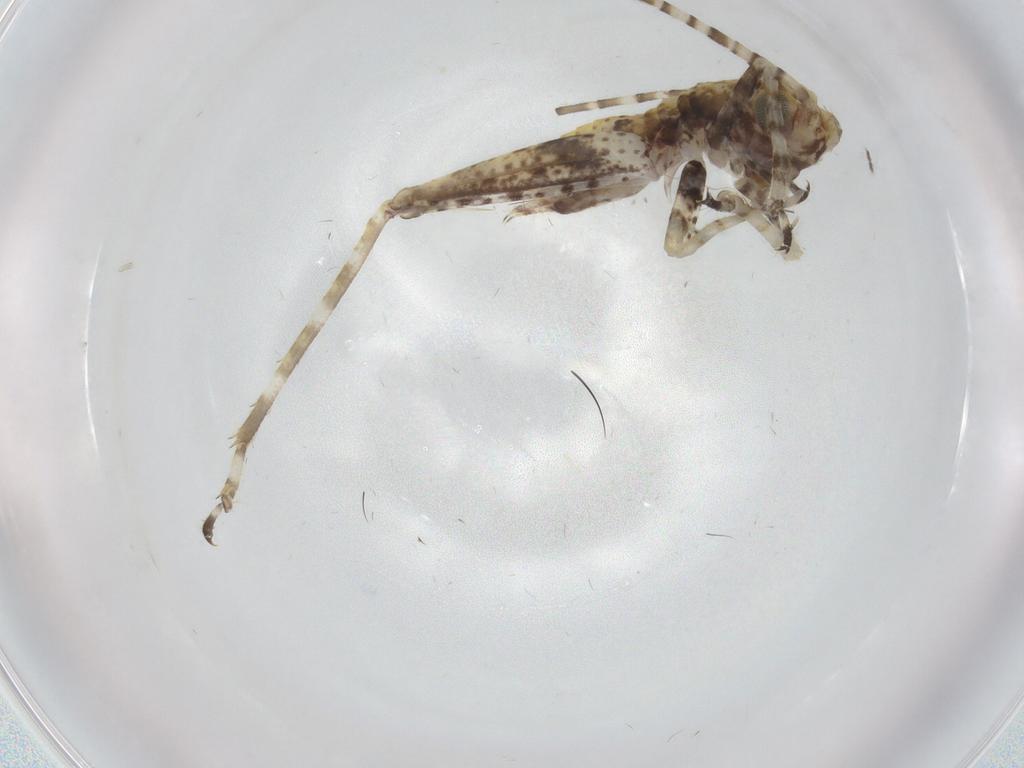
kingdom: Animalia
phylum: Arthropoda
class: Insecta
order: Orthoptera
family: Gryllidae
